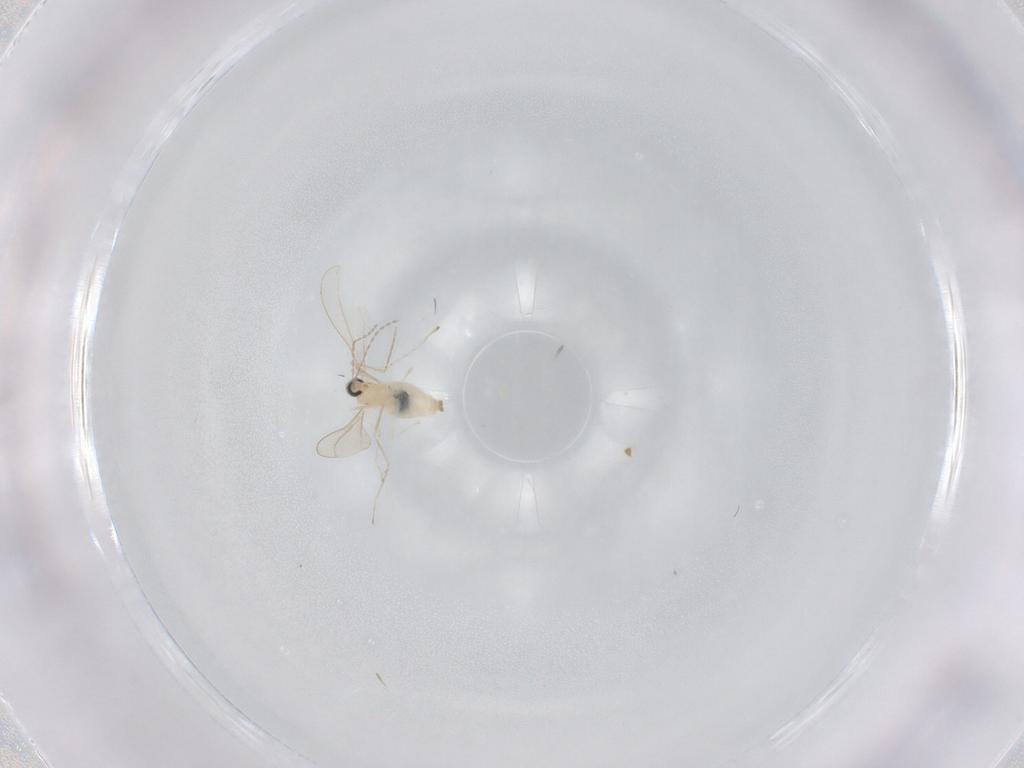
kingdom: Animalia
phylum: Arthropoda
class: Insecta
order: Diptera
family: Cecidomyiidae
